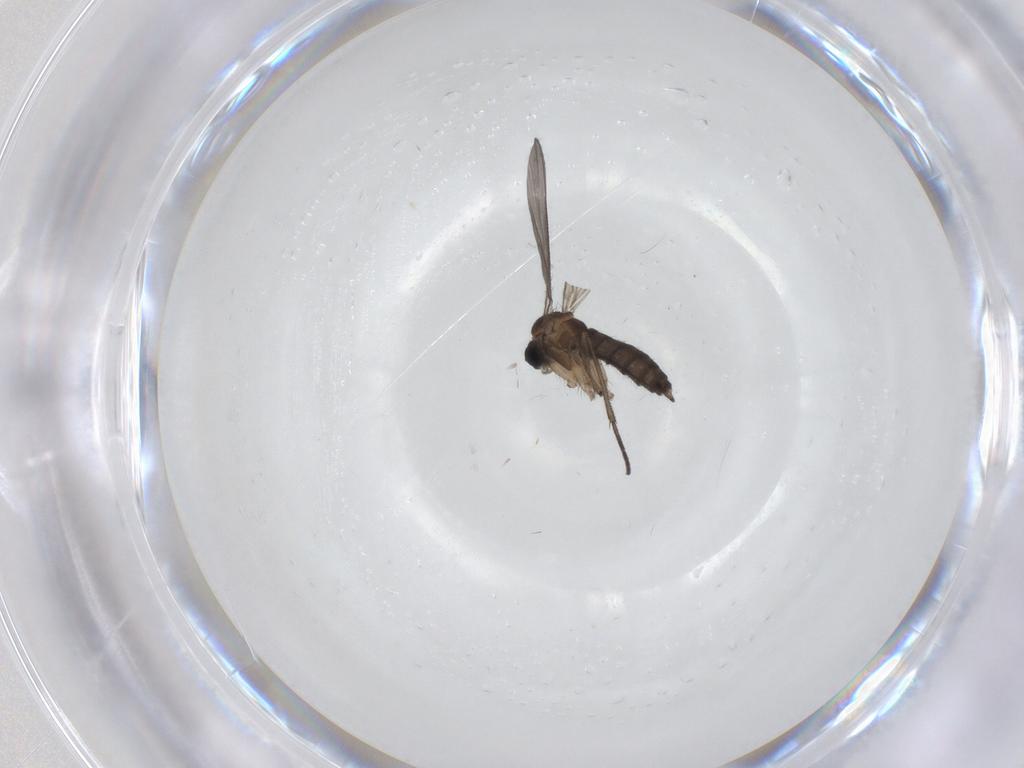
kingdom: Animalia
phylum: Arthropoda
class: Insecta
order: Diptera
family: Sciaridae
